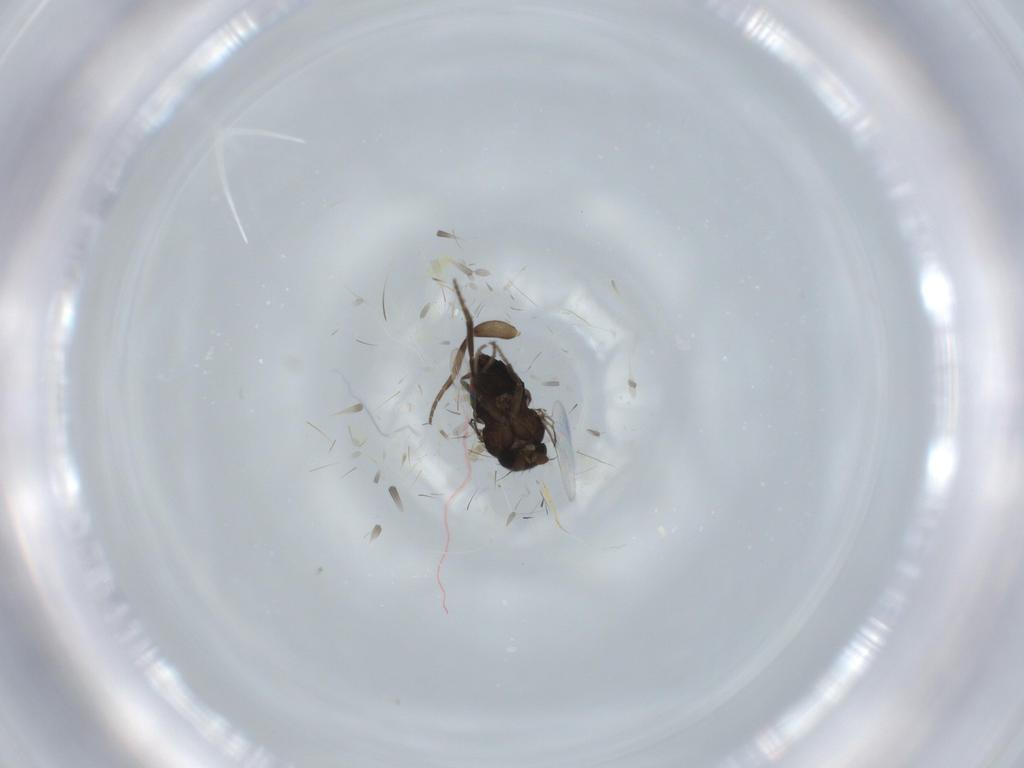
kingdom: Animalia
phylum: Arthropoda
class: Insecta
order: Diptera
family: Phoridae
